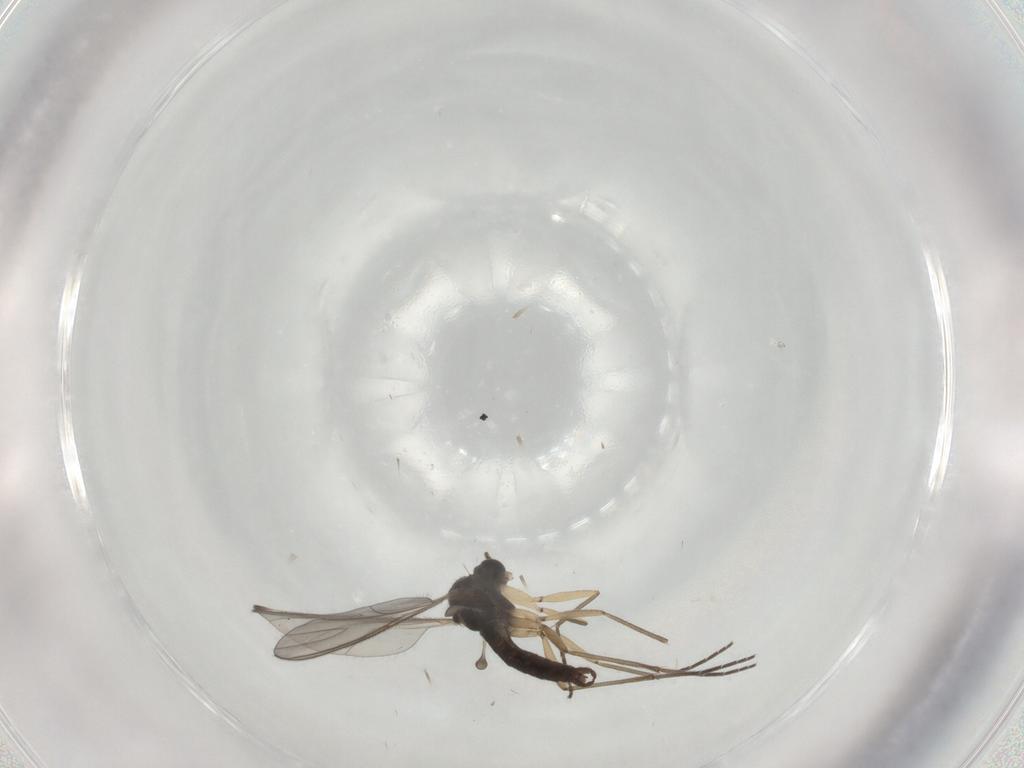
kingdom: Animalia
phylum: Arthropoda
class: Insecta
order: Diptera
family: Sciaridae
